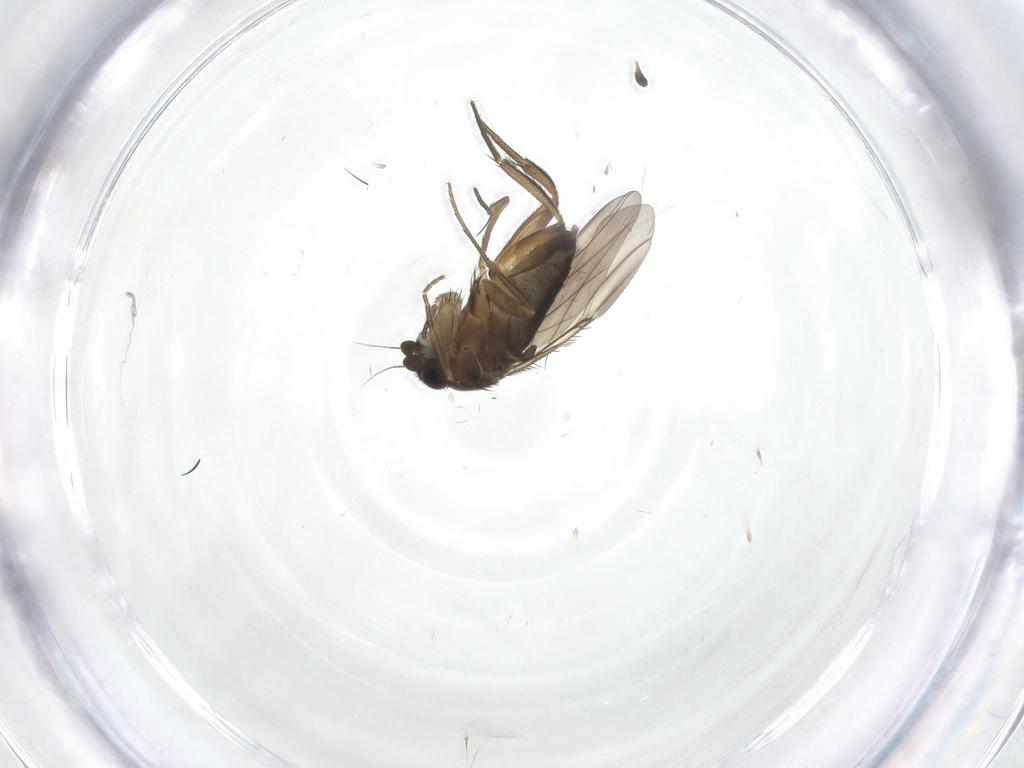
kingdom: Animalia
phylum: Arthropoda
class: Insecta
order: Diptera
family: Phoridae
